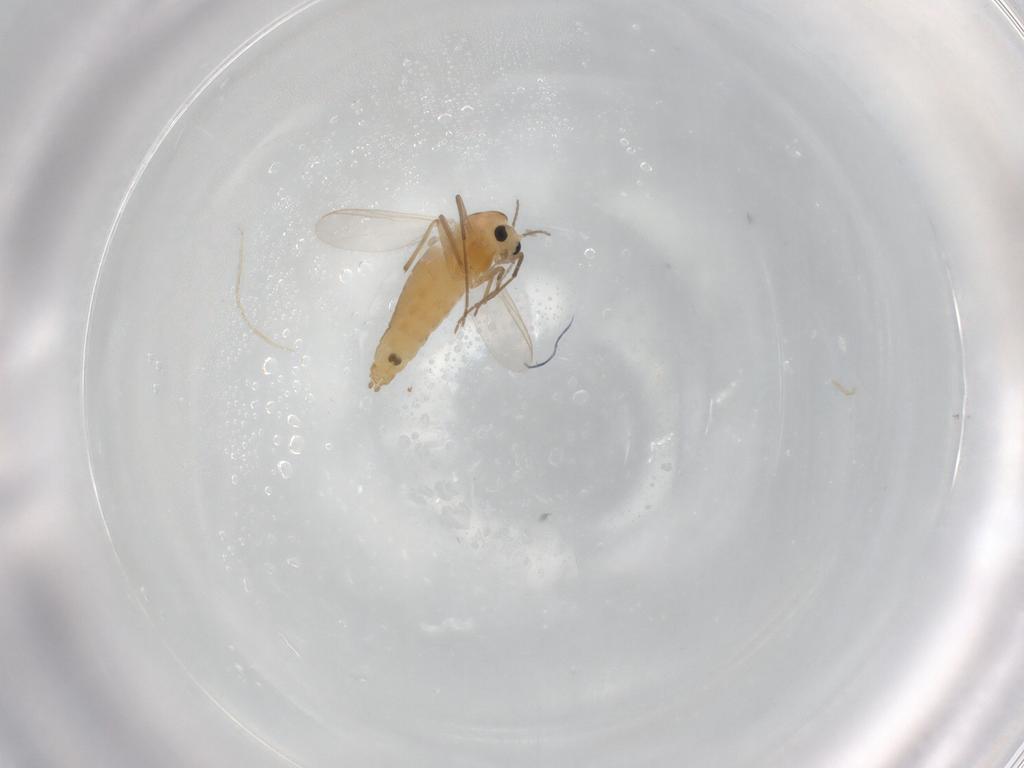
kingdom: Animalia
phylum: Arthropoda
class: Insecta
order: Diptera
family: Chironomidae
